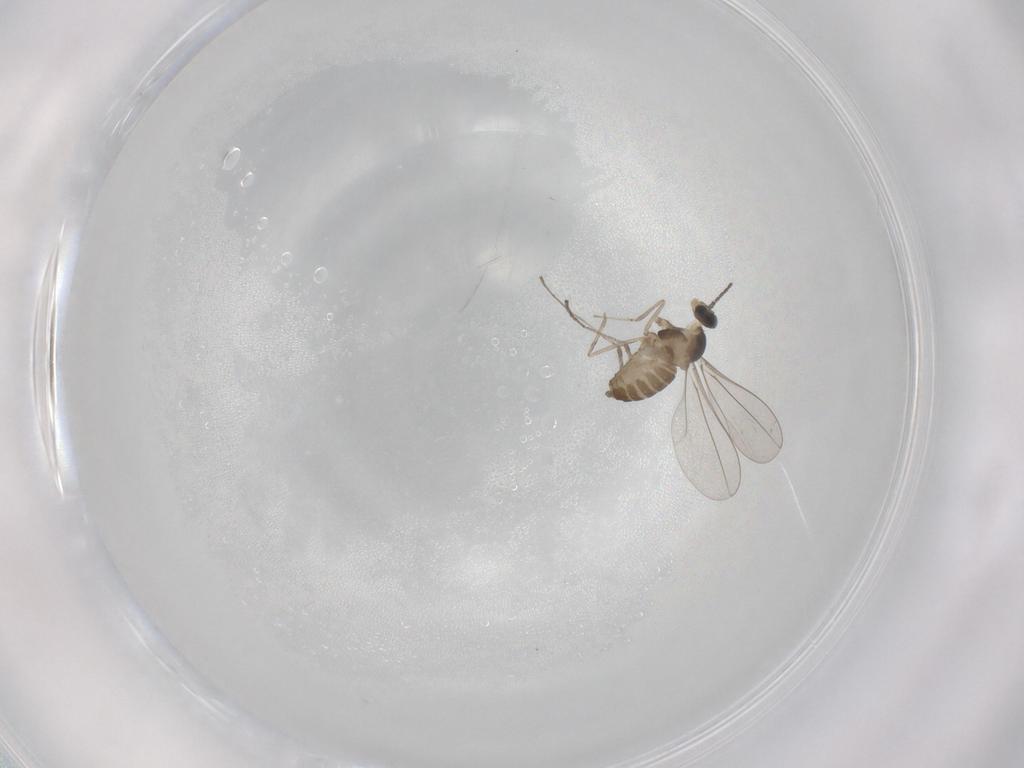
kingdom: Animalia
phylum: Arthropoda
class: Insecta
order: Diptera
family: Cecidomyiidae
